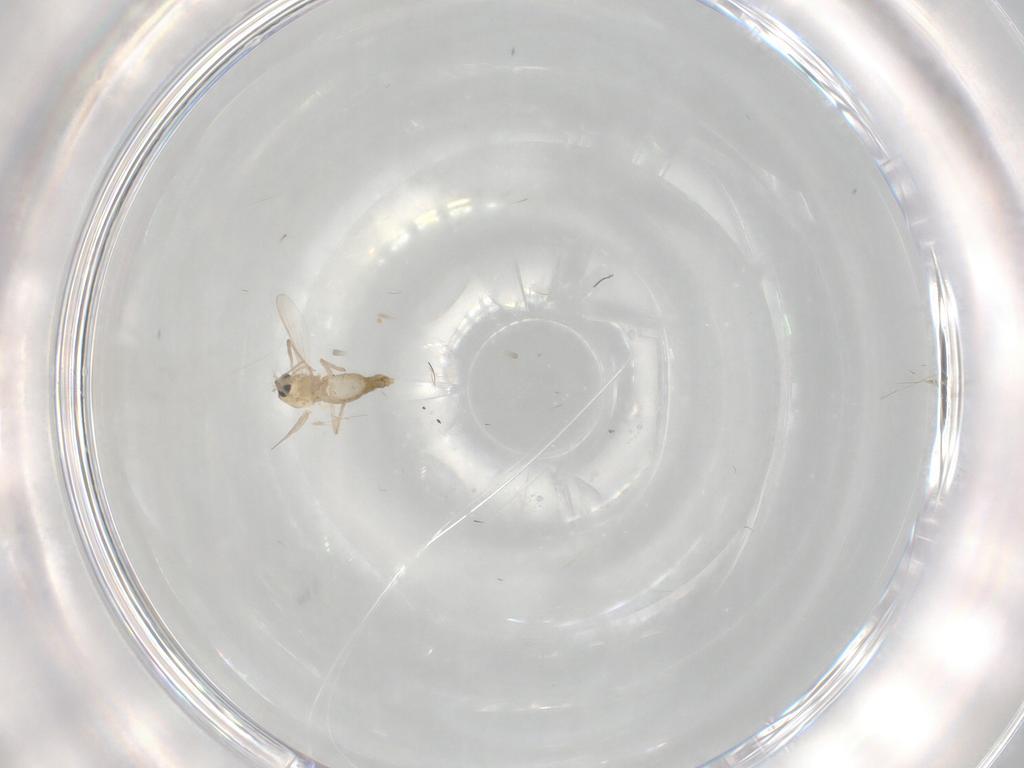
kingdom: Animalia
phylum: Arthropoda
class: Insecta
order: Diptera
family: Chironomidae
